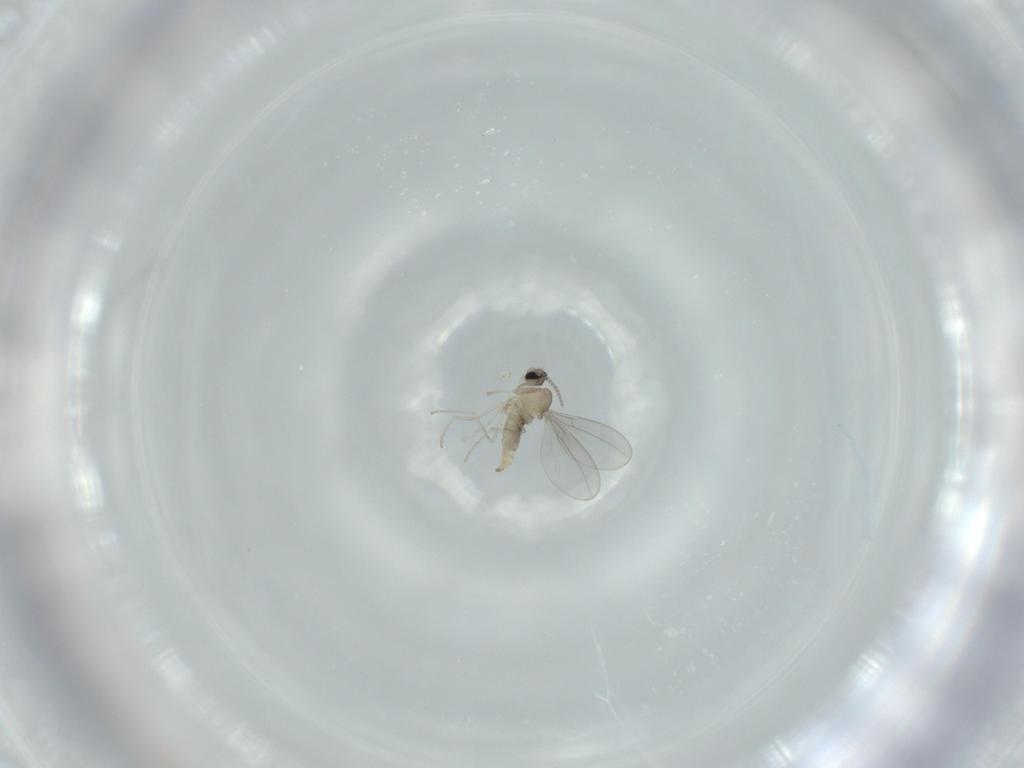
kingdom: Animalia
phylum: Arthropoda
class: Insecta
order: Diptera
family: Cecidomyiidae
